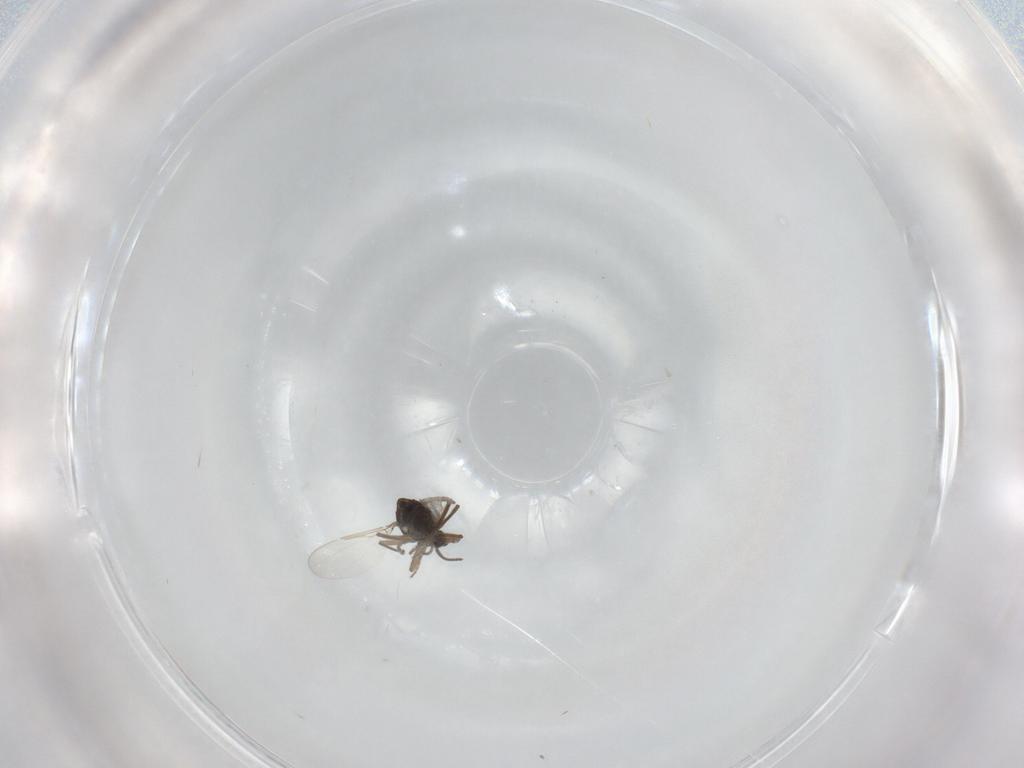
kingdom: Animalia
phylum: Arthropoda
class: Insecta
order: Diptera
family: Ceratopogonidae
